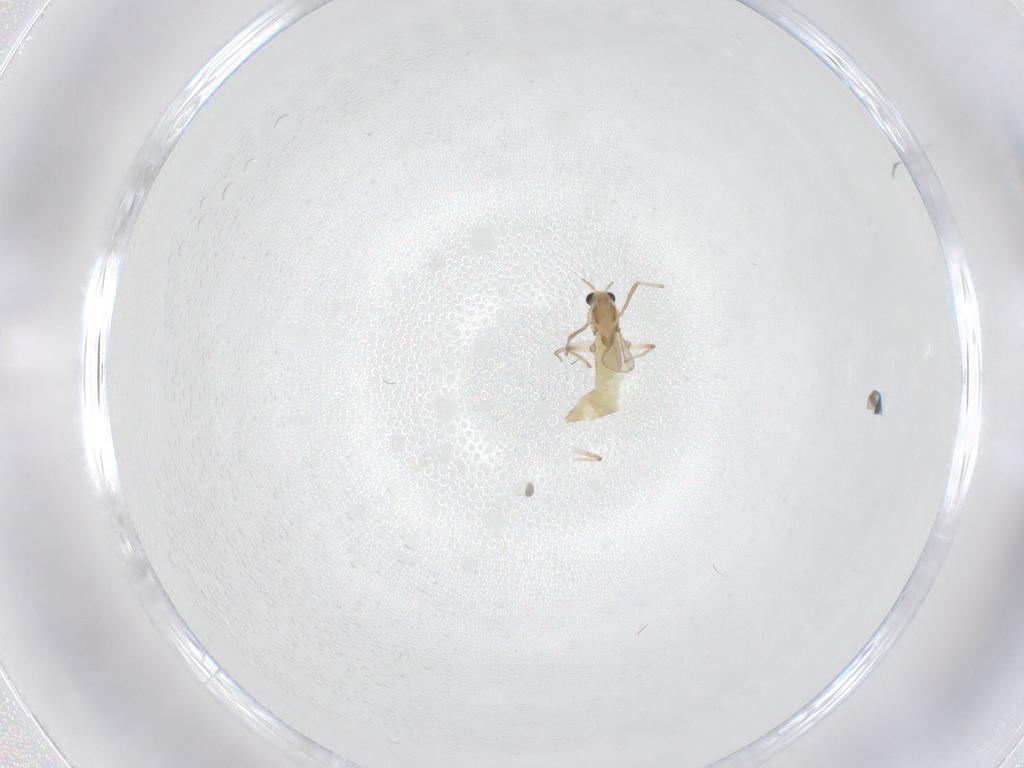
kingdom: Animalia
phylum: Arthropoda
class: Insecta
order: Diptera
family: Chironomidae
